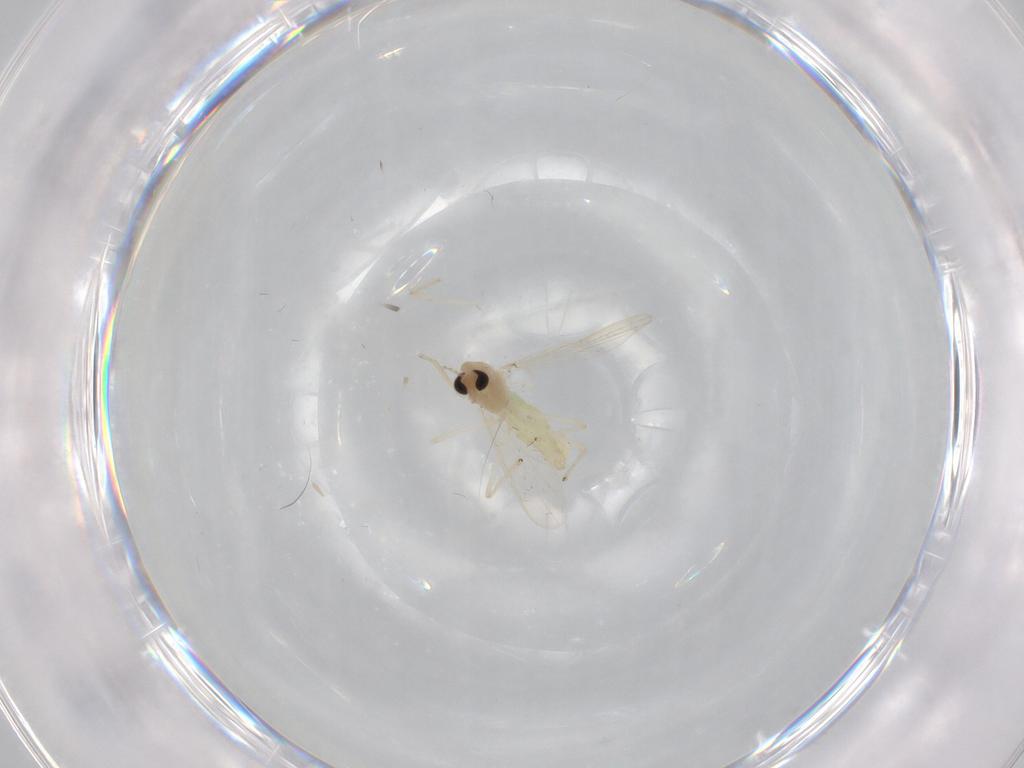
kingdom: Animalia
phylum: Arthropoda
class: Insecta
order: Diptera
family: Chironomidae
